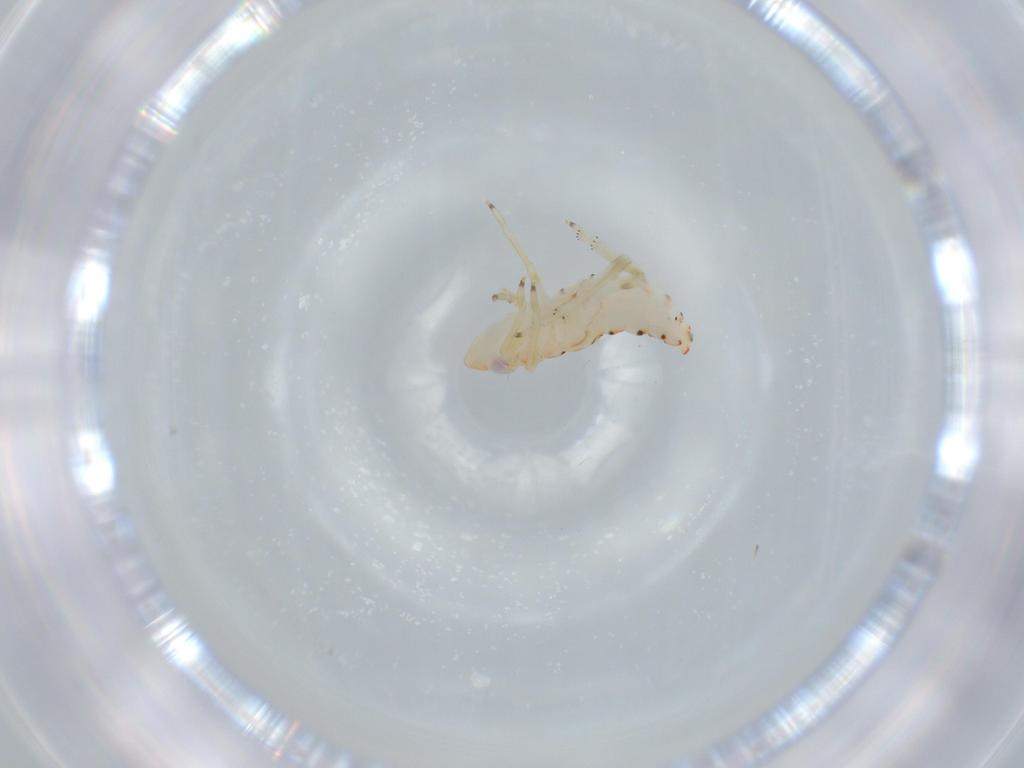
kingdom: Animalia
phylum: Arthropoda
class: Insecta
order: Hemiptera
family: Tropiduchidae
